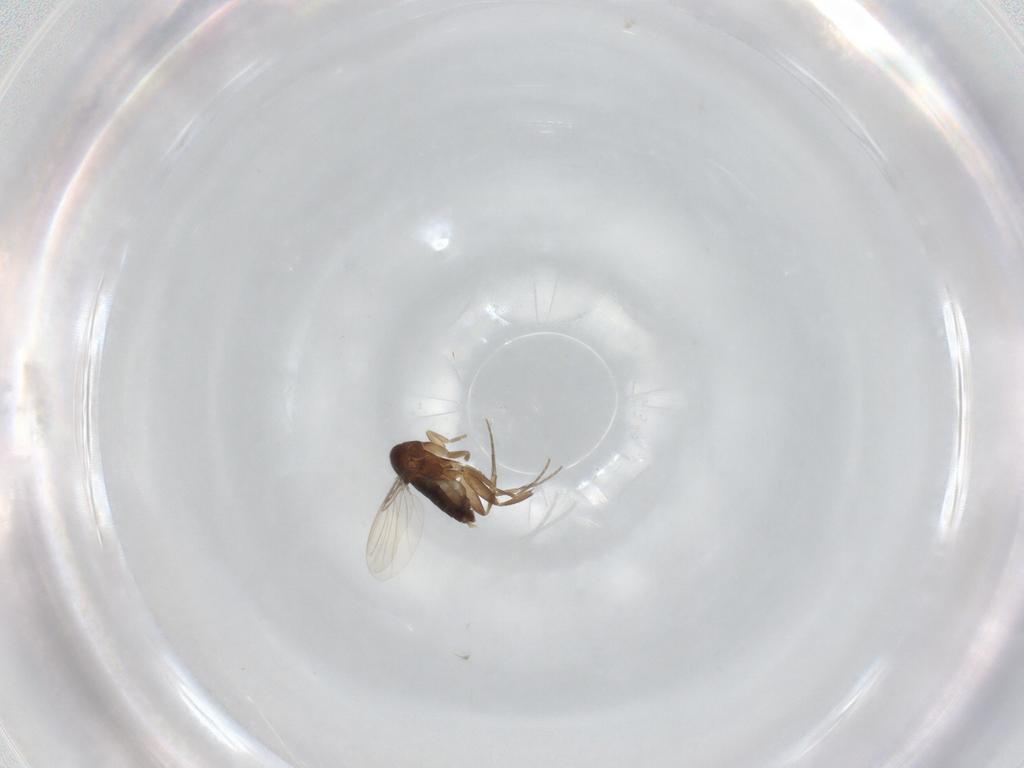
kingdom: Animalia
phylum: Arthropoda
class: Insecta
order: Diptera
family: Phoridae
